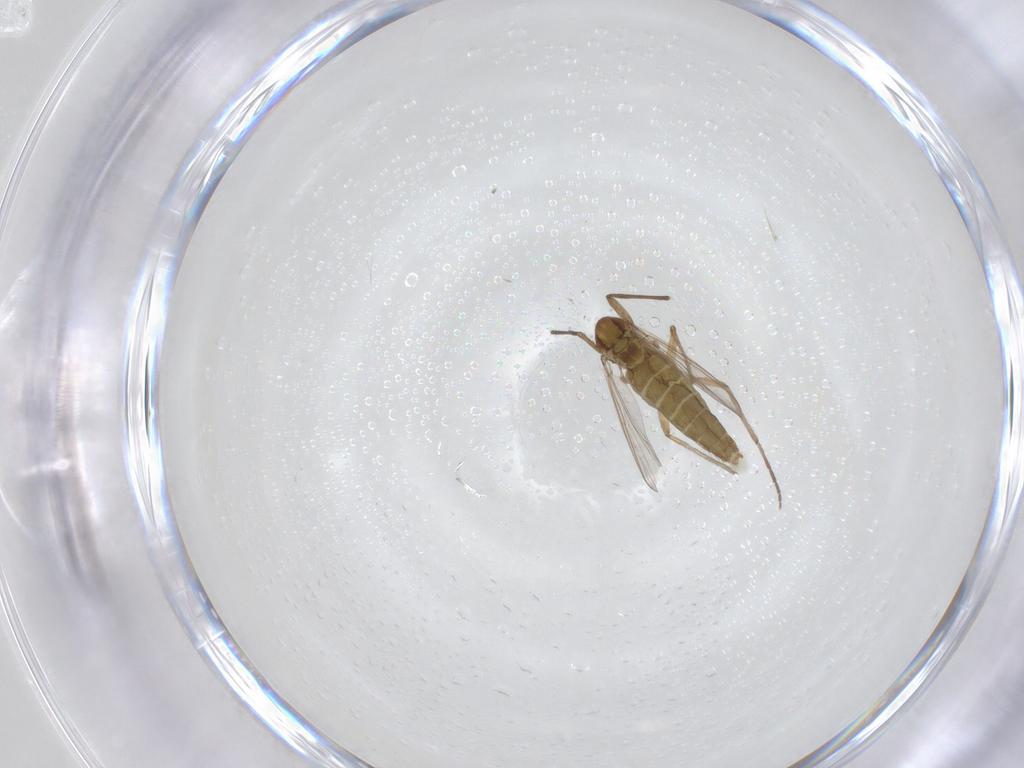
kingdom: Animalia
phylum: Arthropoda
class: Insecta
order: Diptera
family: Chironomidae
